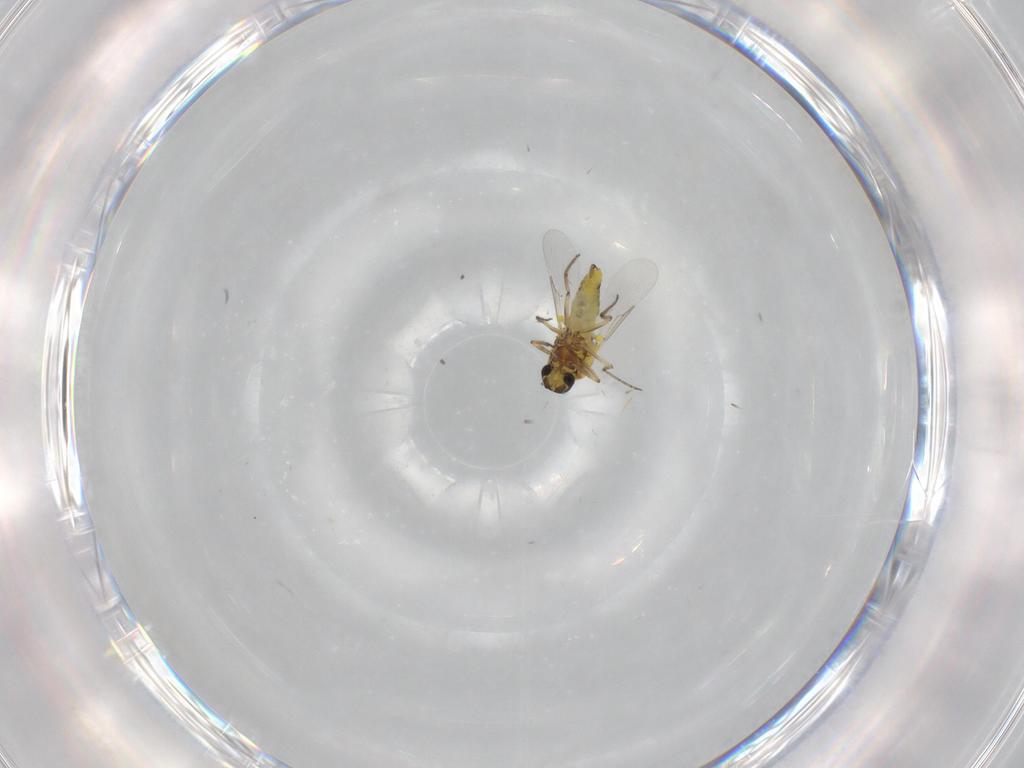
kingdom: Animalia
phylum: Arthropoda
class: Insecta
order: Diptera
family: Ceratopogonidae
